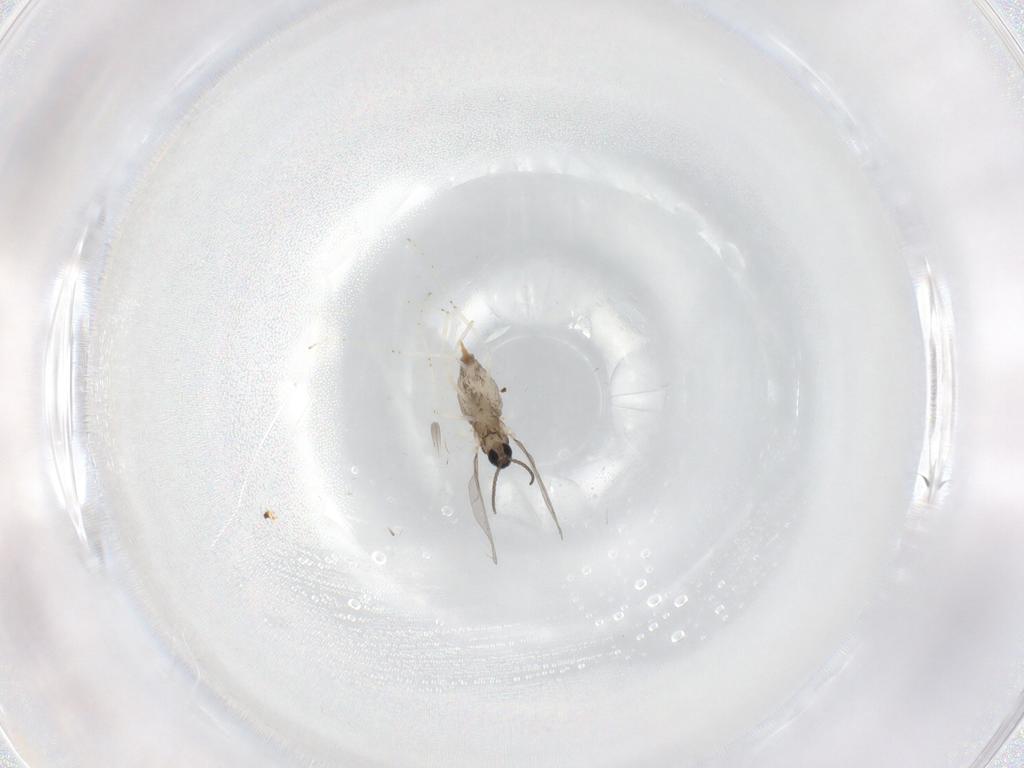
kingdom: Animalia
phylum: Arthropoda
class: Insecta
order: Diptera
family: Cecidomyiidae
